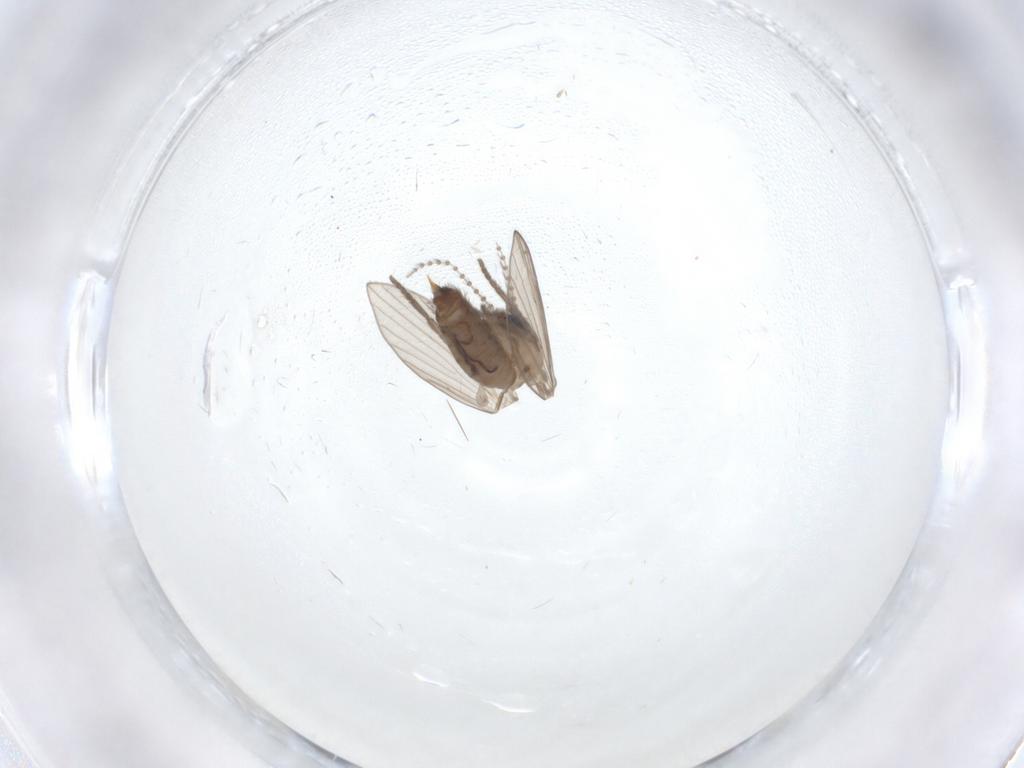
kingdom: Animalia
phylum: Arthropoda
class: Insecta
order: Diptera
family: Psychodidae
